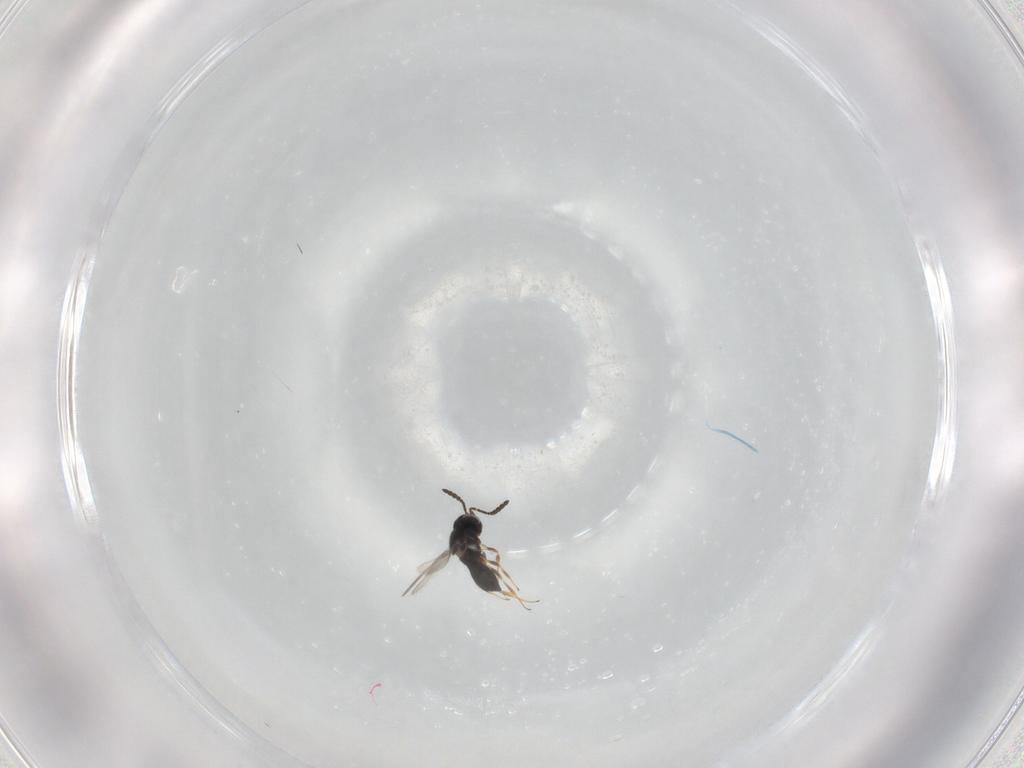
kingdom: Animalia
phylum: Arthropoda
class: Insecta
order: Hymenoptera
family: Scelionidae
